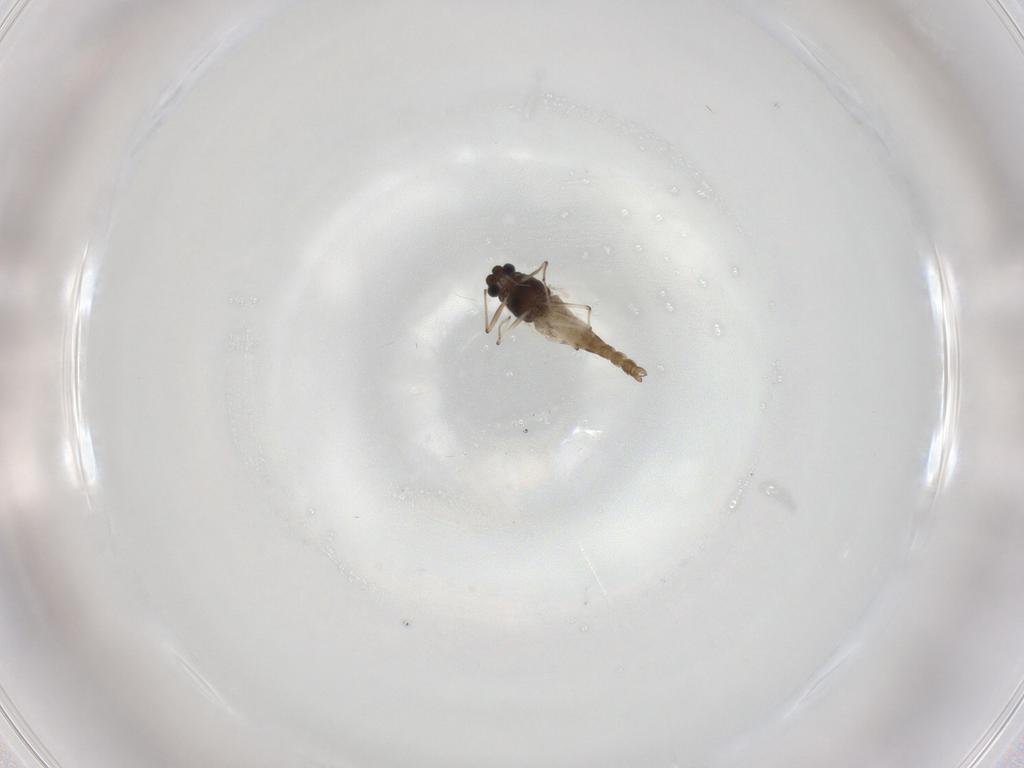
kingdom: Animalia
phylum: Arthropoda
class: Insecta
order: Diptera
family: Chironomidae
